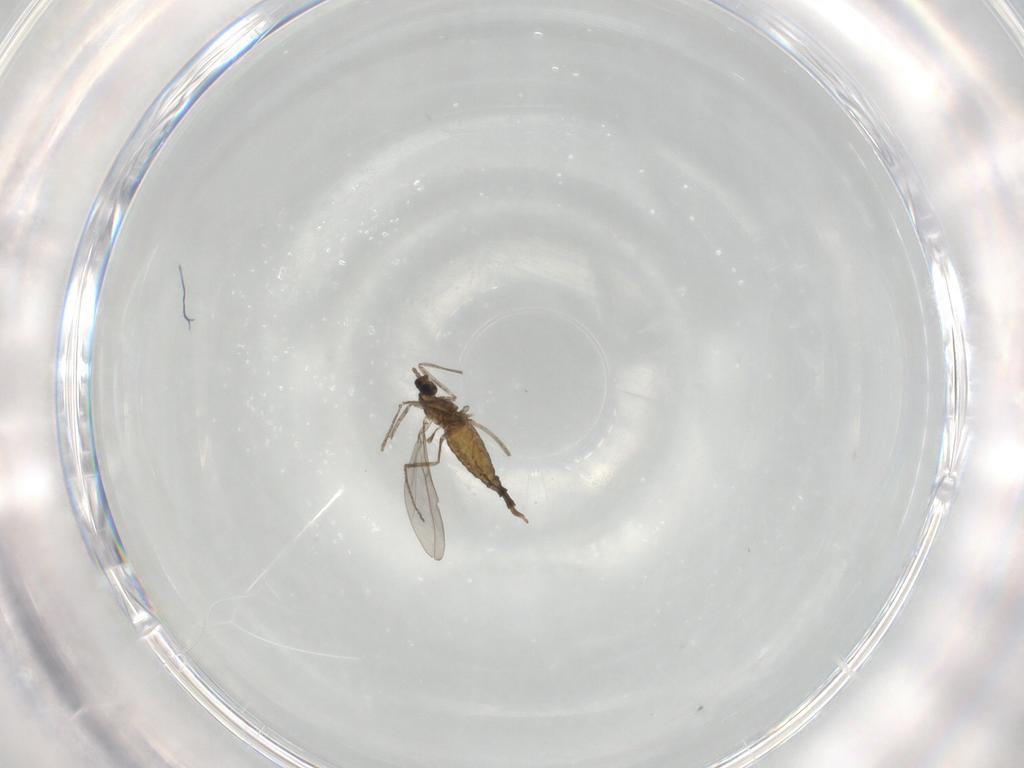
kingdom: Animalia
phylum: Arthropoda
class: Insecta
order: Diptera
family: Cecidomyiidae
